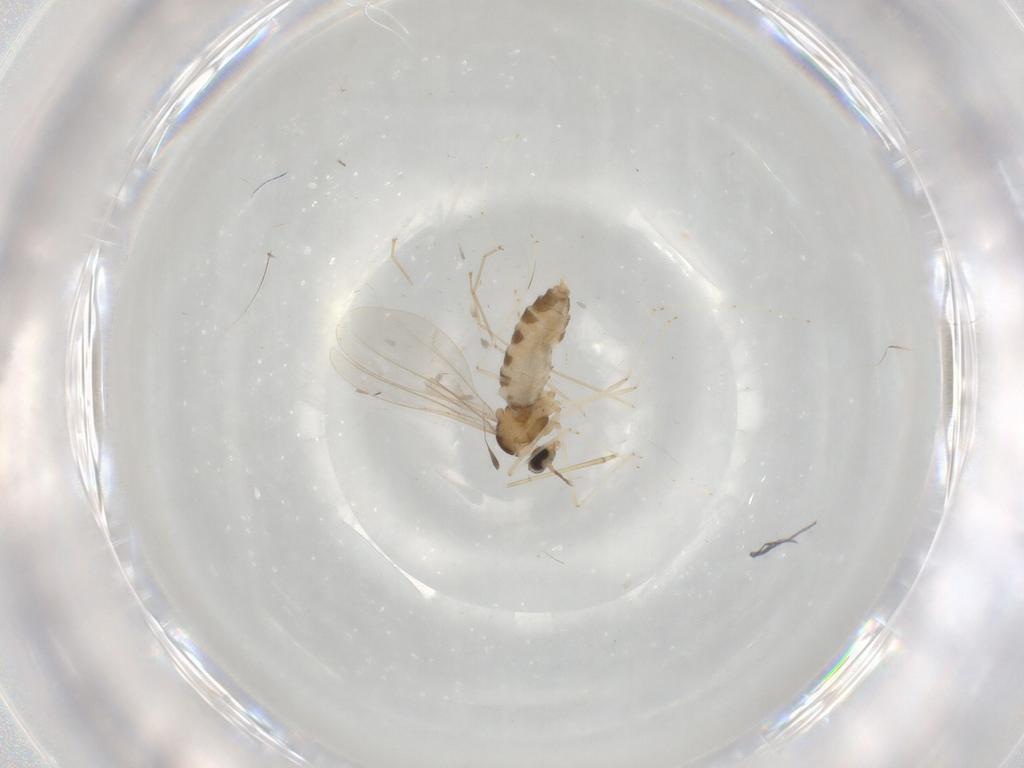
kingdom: Animalia
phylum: Arthropoda
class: Insecta
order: Diptera
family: Cecidomyiidae
